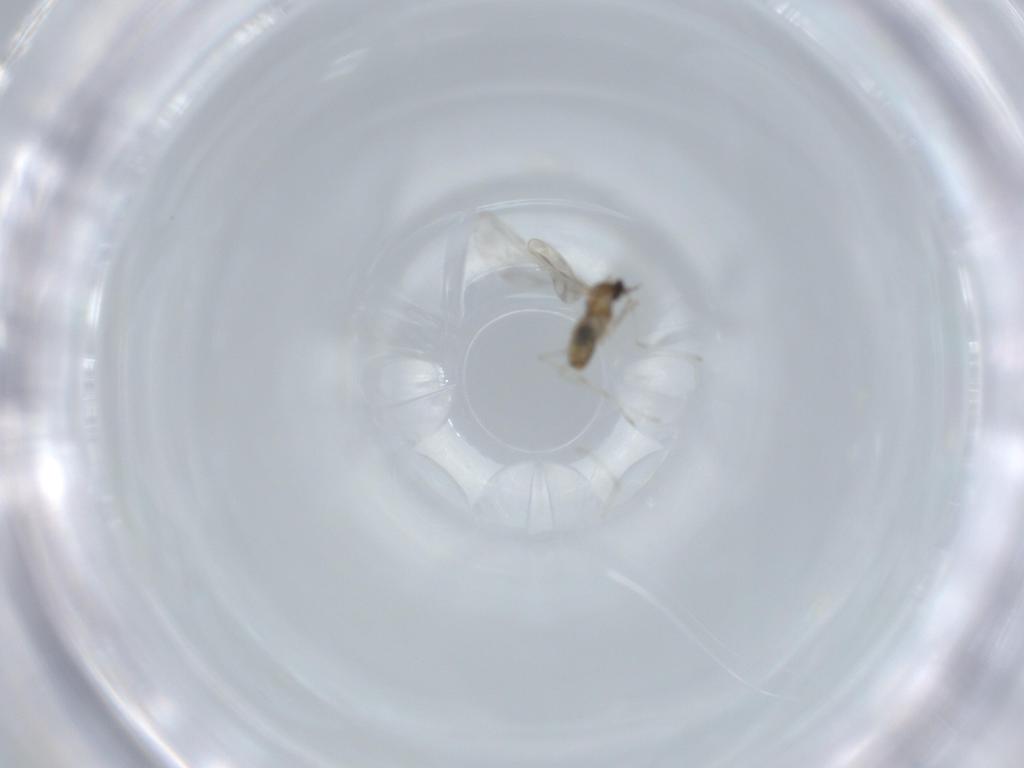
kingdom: Animalia
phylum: Arthropoda
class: Insecta
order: Diptera
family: Cecidomyiidae
